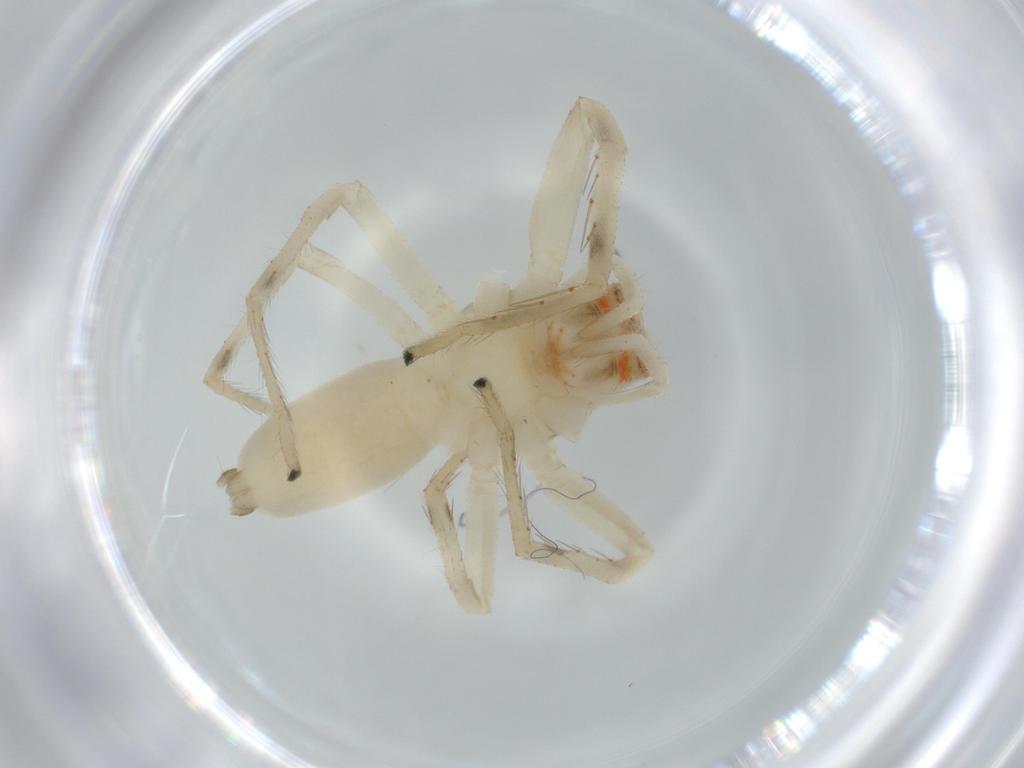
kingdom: Animalia
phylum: Arthropoda
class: Arachnida
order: Araneae
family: Salticidae
